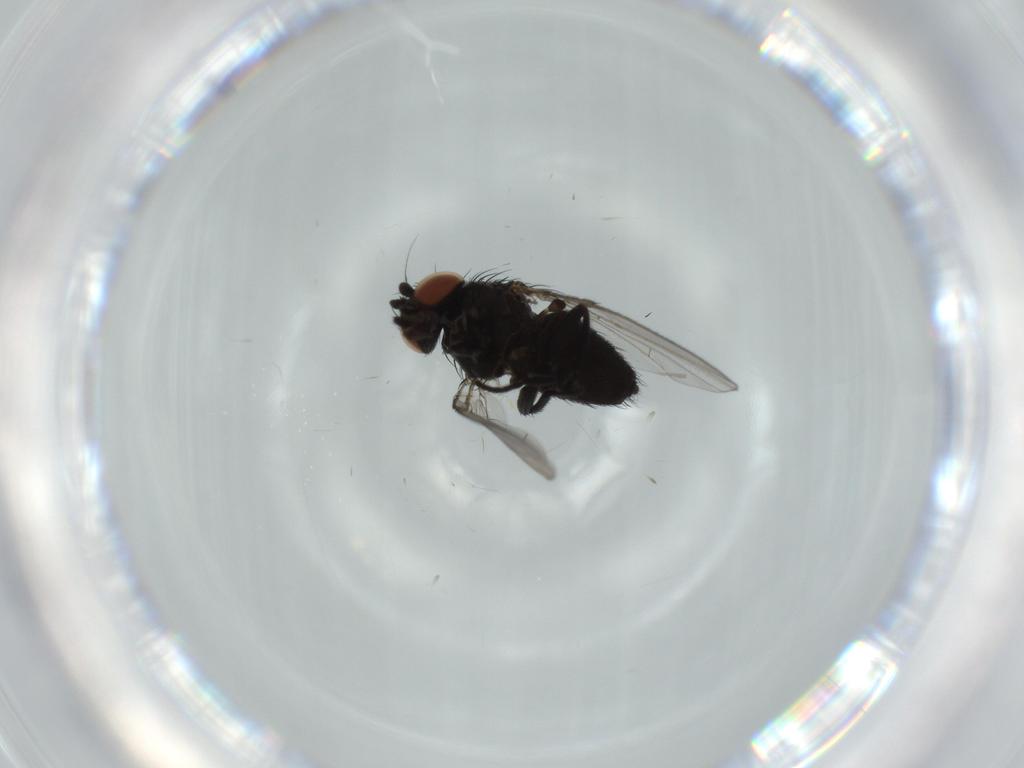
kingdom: Animalia
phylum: Arthropoda
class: Insecta
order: Diptera
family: Milichiidae
